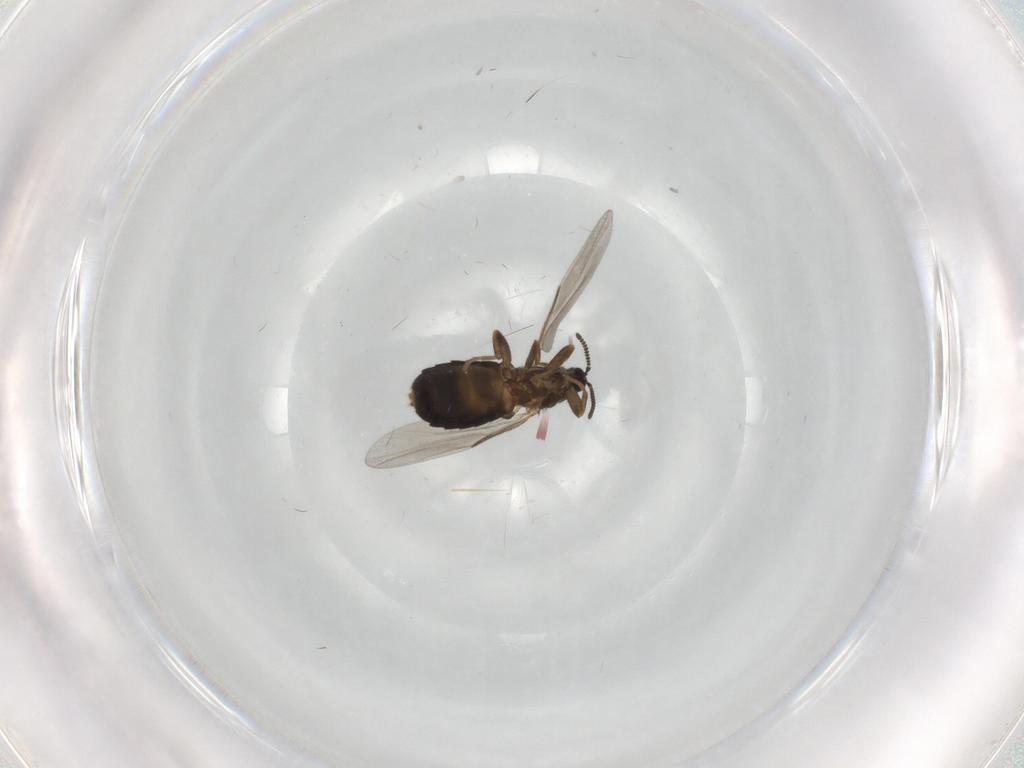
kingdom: Animalia
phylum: Arthropoda
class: Insecta
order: Diptera
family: Scatopsidae
